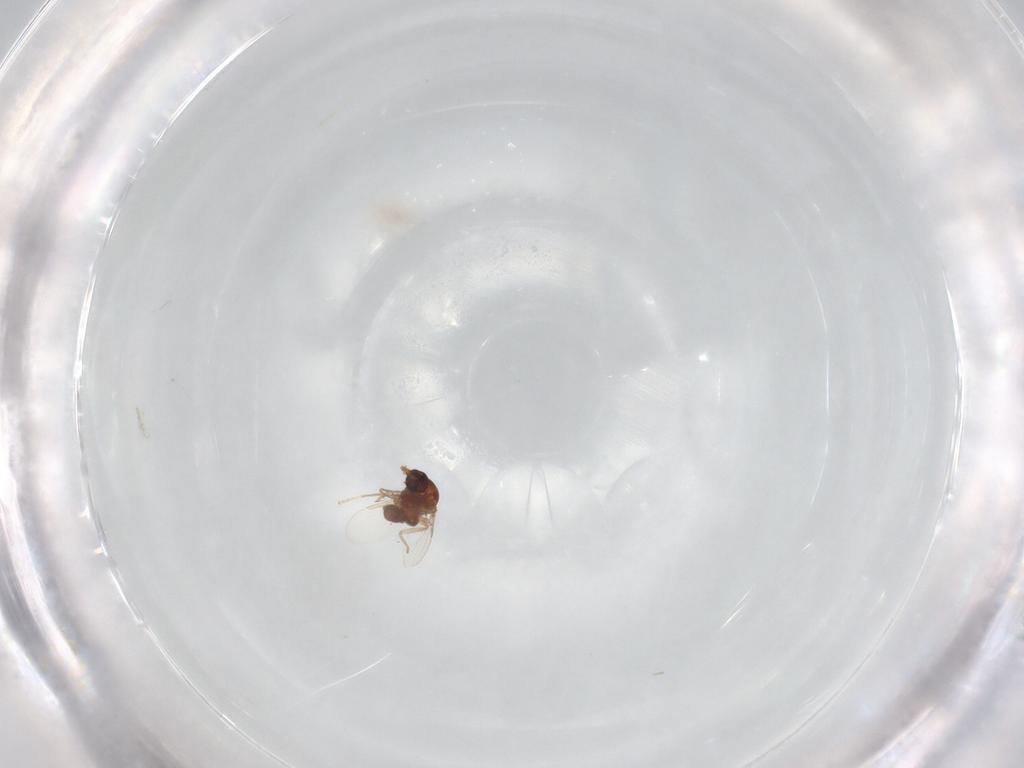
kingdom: Animalia
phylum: Arthropoda
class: Insecta
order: Diptera
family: Ceratopogonidae
